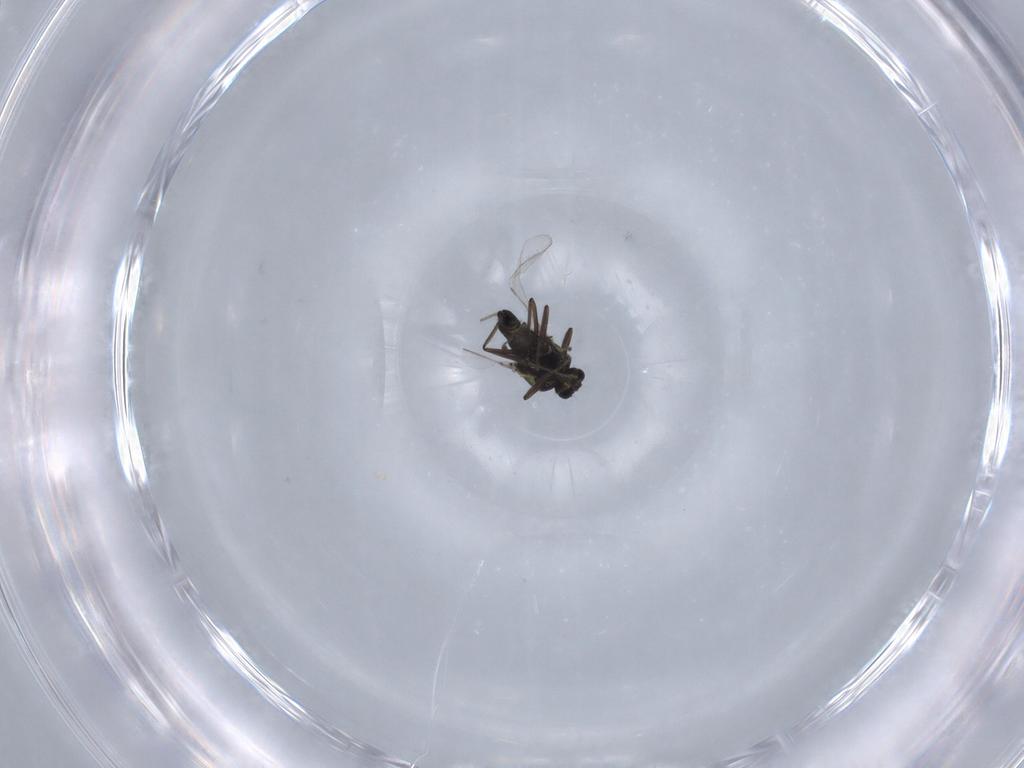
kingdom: Animalia
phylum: Arthropoda
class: Insecta
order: Diptera
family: Ceratopogonidae
